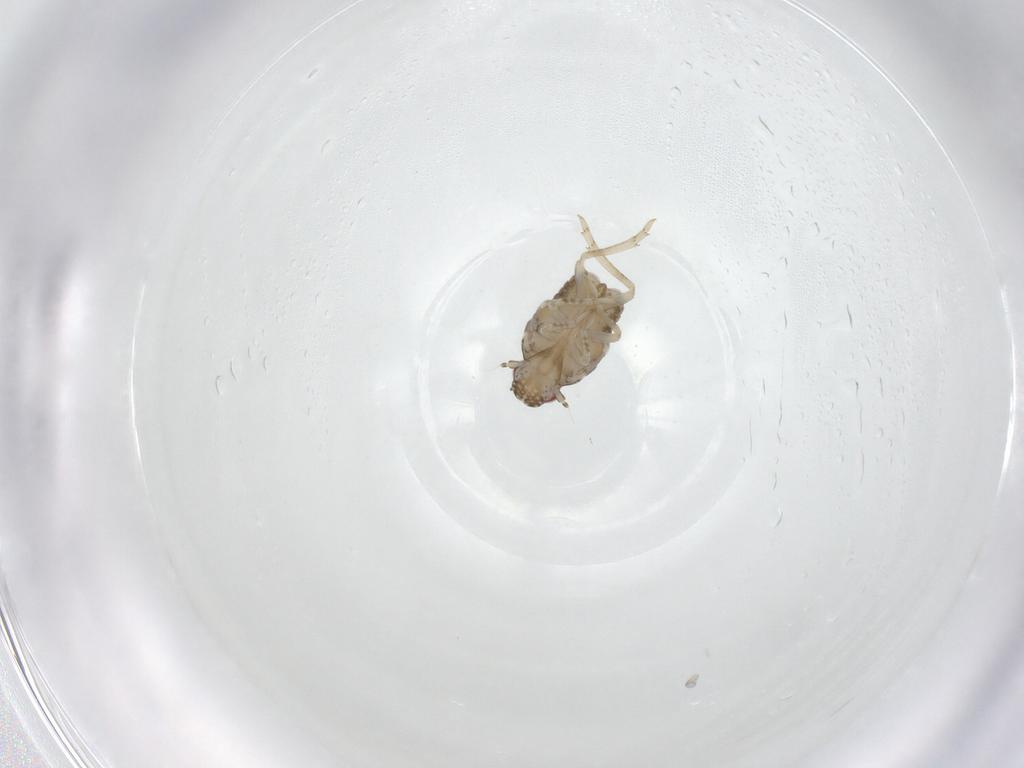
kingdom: Animalia
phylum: Arthropoda
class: Insecta
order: Hemiptera
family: Flatidae
